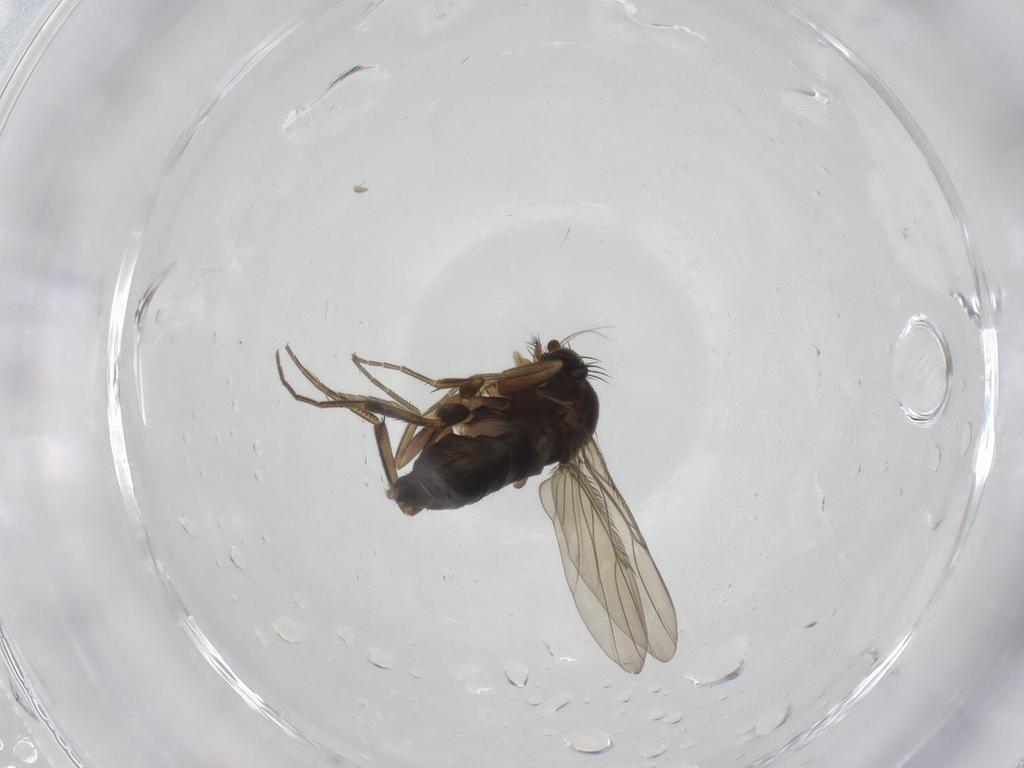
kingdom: Animalia
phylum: Arthropoda
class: Insecta
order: Diptera
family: Phoridae
